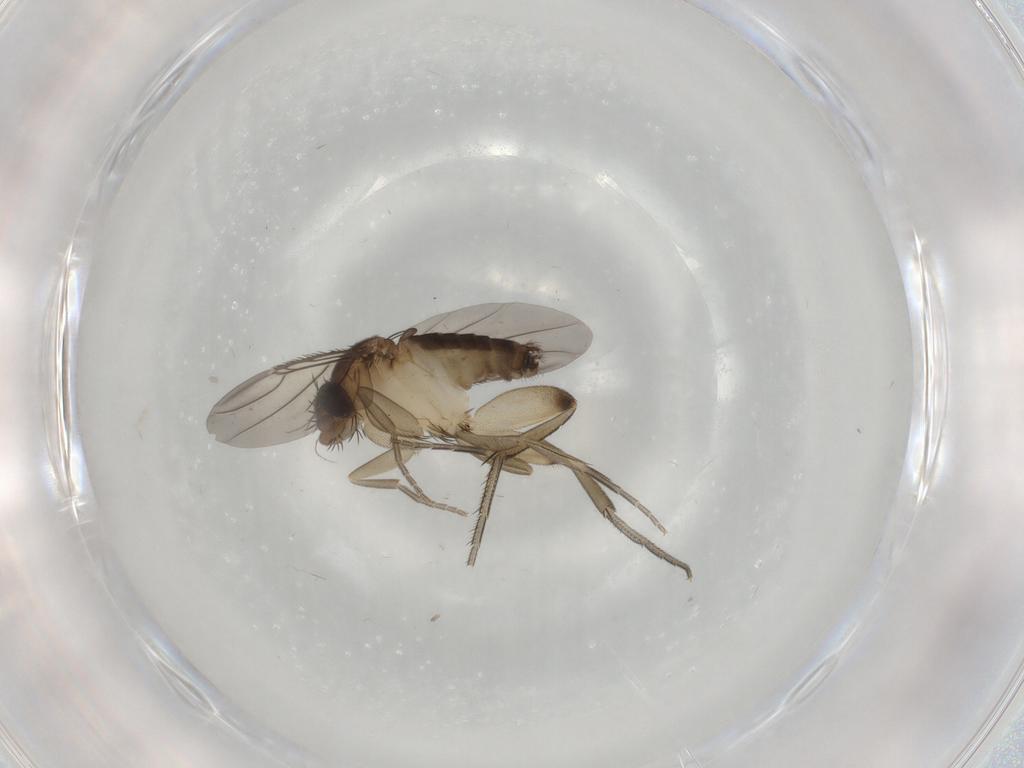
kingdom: Animalia
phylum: Arthropoda
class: Insecta
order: Diptera
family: Phoridae
